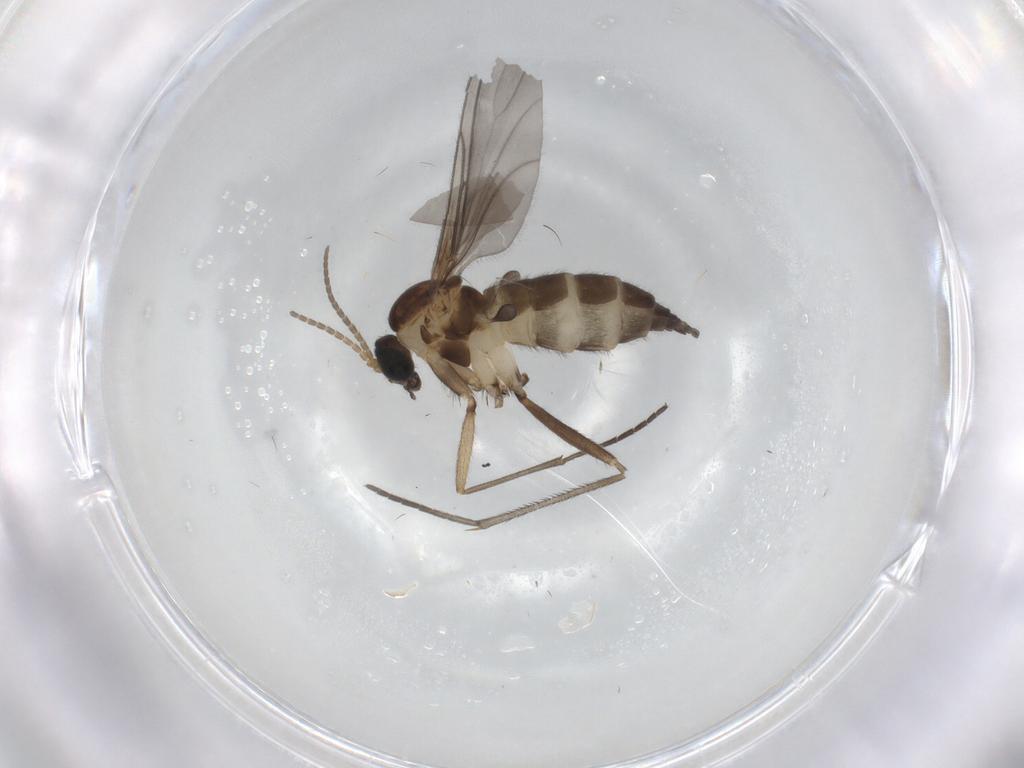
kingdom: Animalia
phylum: Arthropoda
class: Insecta
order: Diptera
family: Sciaridae
